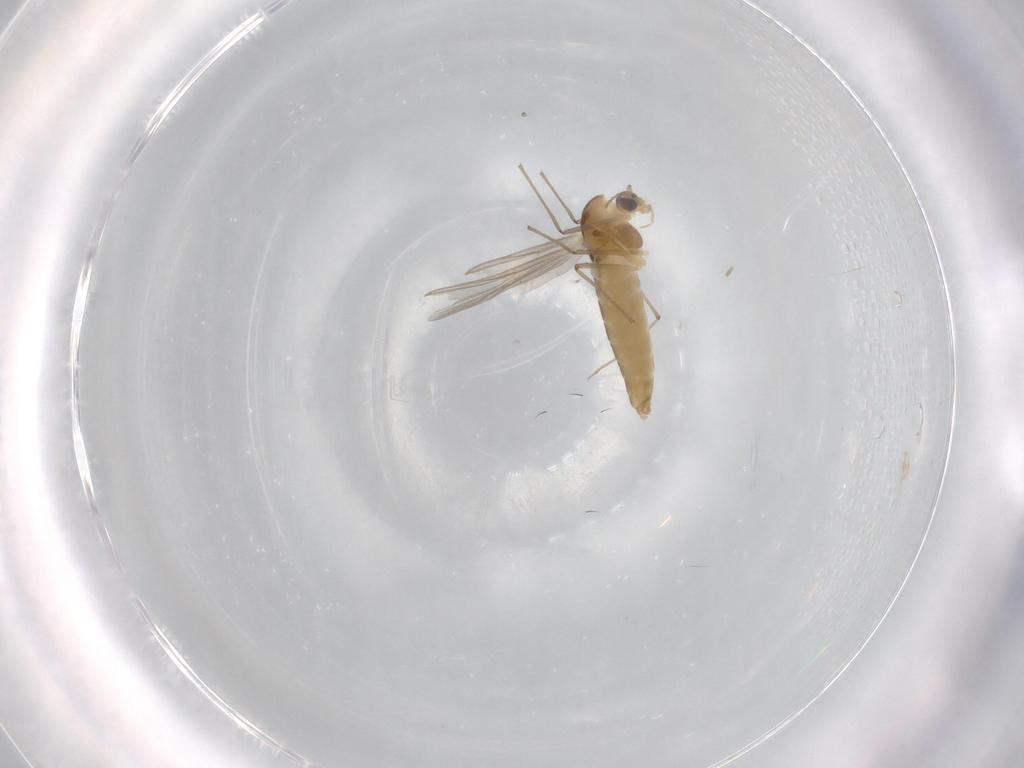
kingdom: Animalia
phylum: Arthropoda
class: Insecta
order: Diptera
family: Chironomidae
